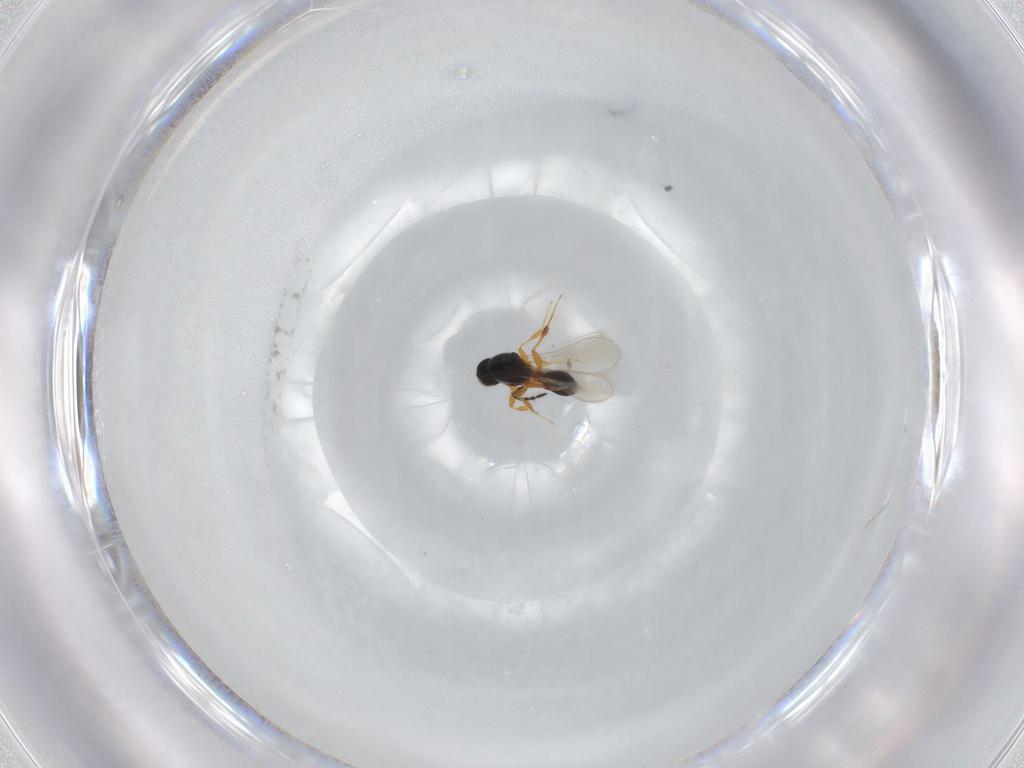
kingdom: Animalia
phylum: Arthropoda
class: Insecta
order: Hymenoptera
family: Platygastridae
